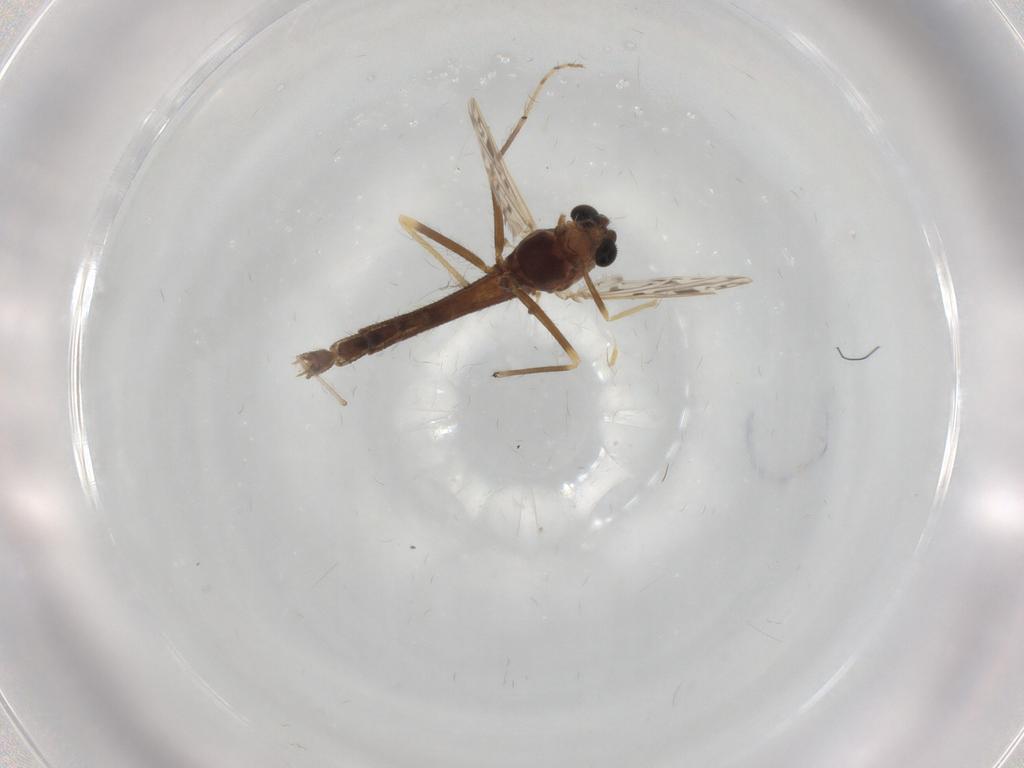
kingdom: Animalia
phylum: Arthropoda
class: Insecta
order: Diptera
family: Chironomidae
